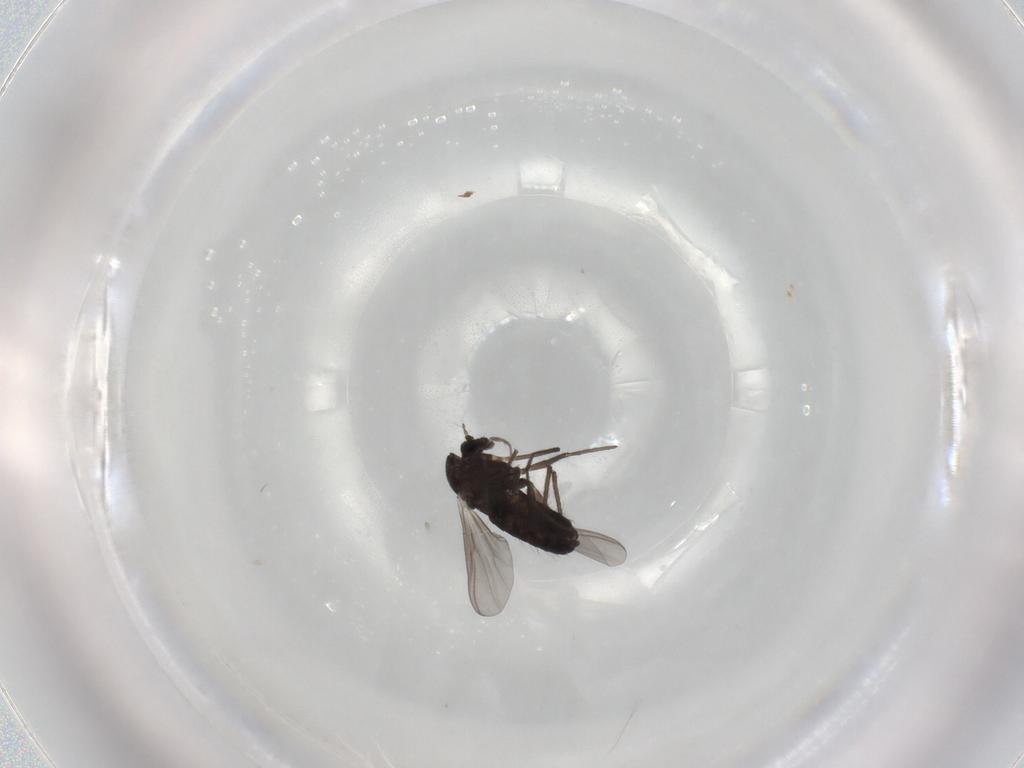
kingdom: Animalia
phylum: Arthropoda
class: Insecta
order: Diptera
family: Chironomidae
